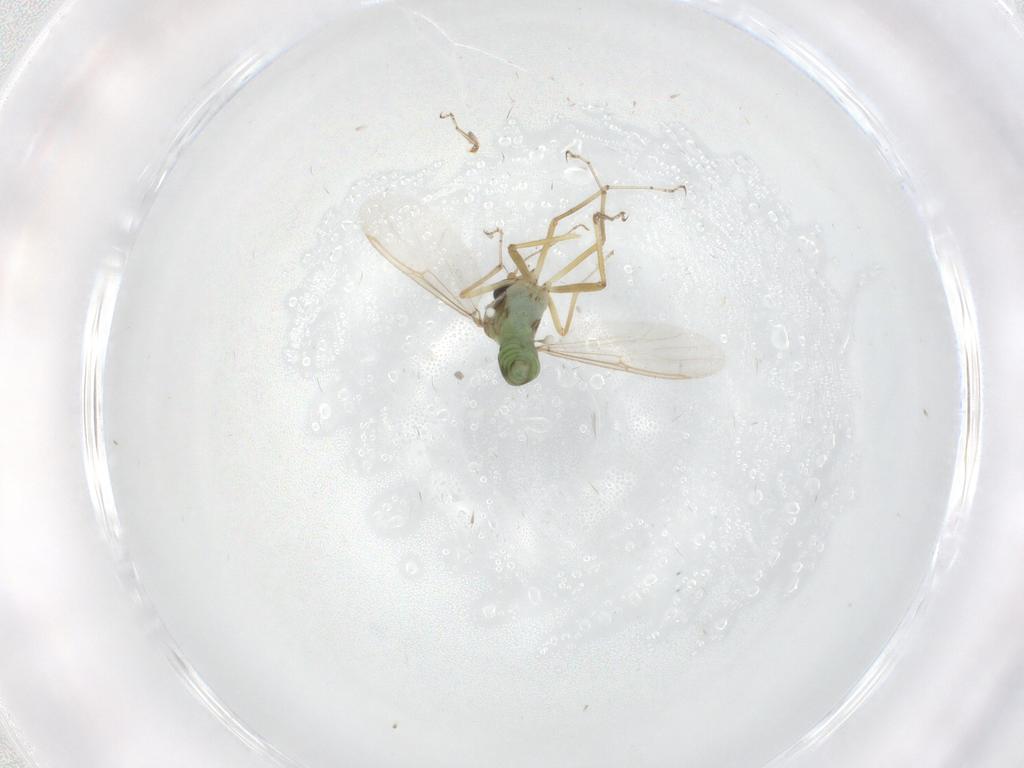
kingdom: Animalia
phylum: Arthropoda
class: Insecta
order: Diptera
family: Ceratopogonidae
